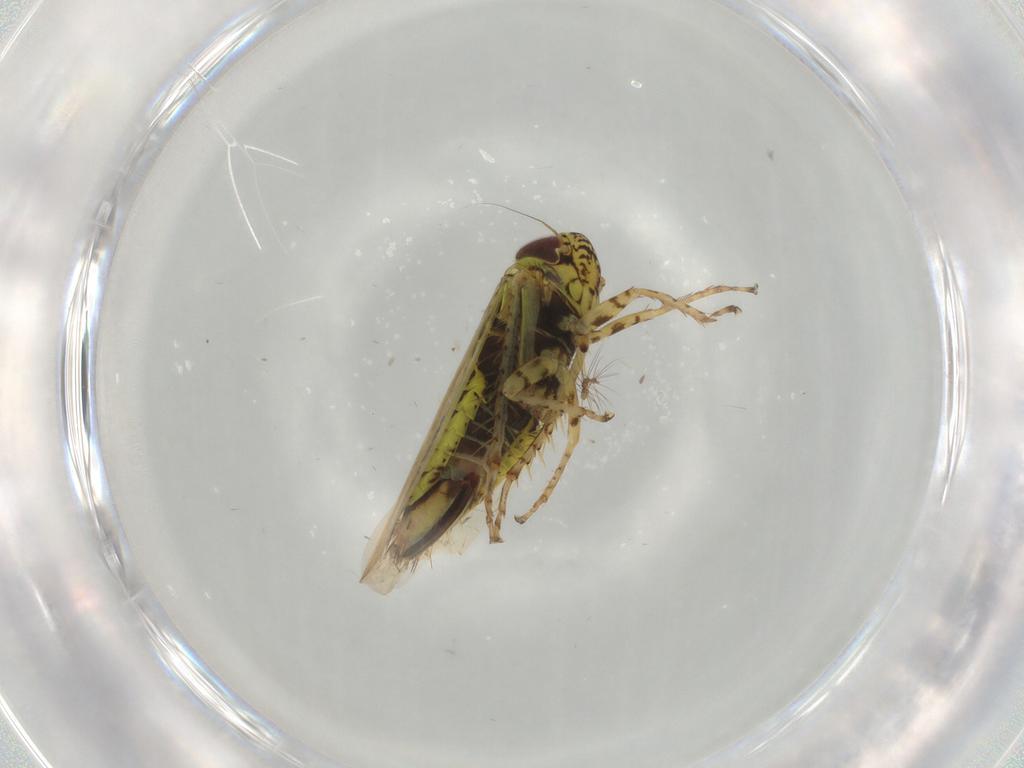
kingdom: Animalia
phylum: Arthropoda
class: Insecta
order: Hemiptera
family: Cicadellidae
